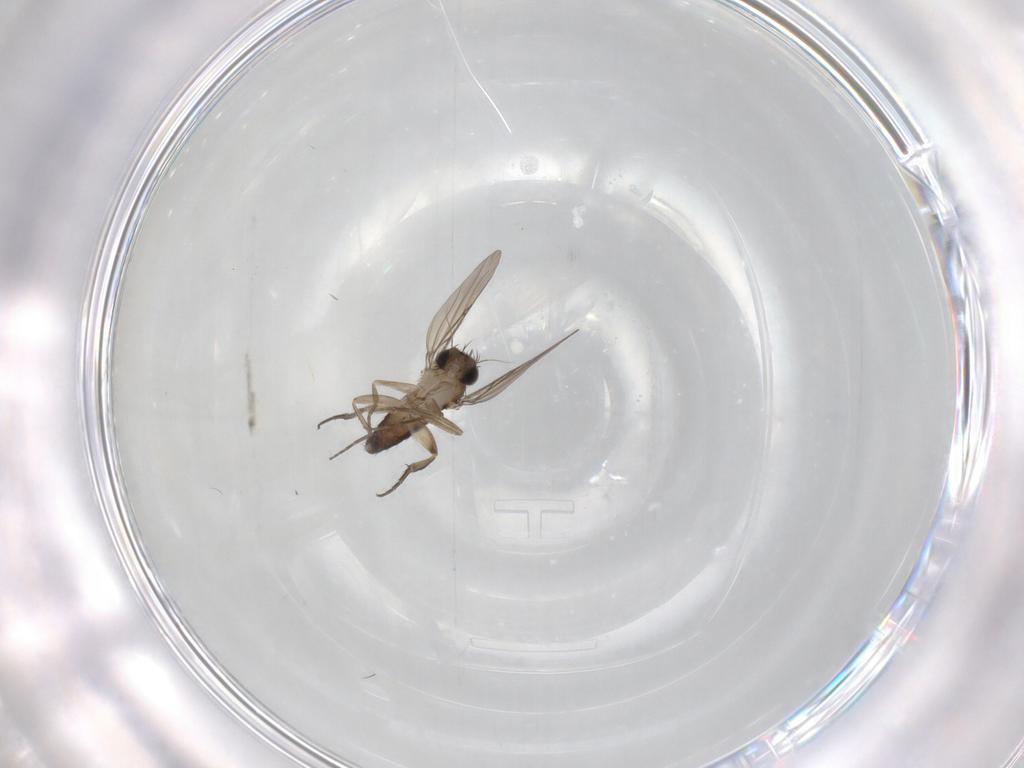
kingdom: Animalia
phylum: Arthropoda
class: Insecta
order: Diptera
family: Phoridae
